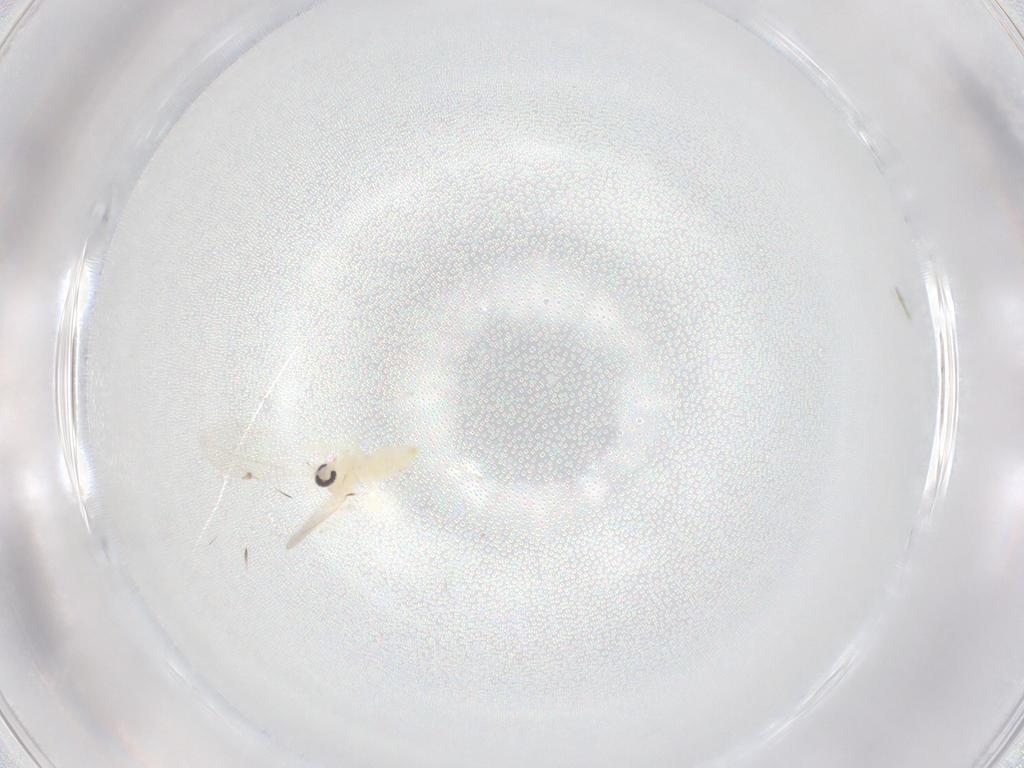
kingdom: Animalia
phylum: Arthropoda
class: Insecta
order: Diptera
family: Cecidomyiidae
